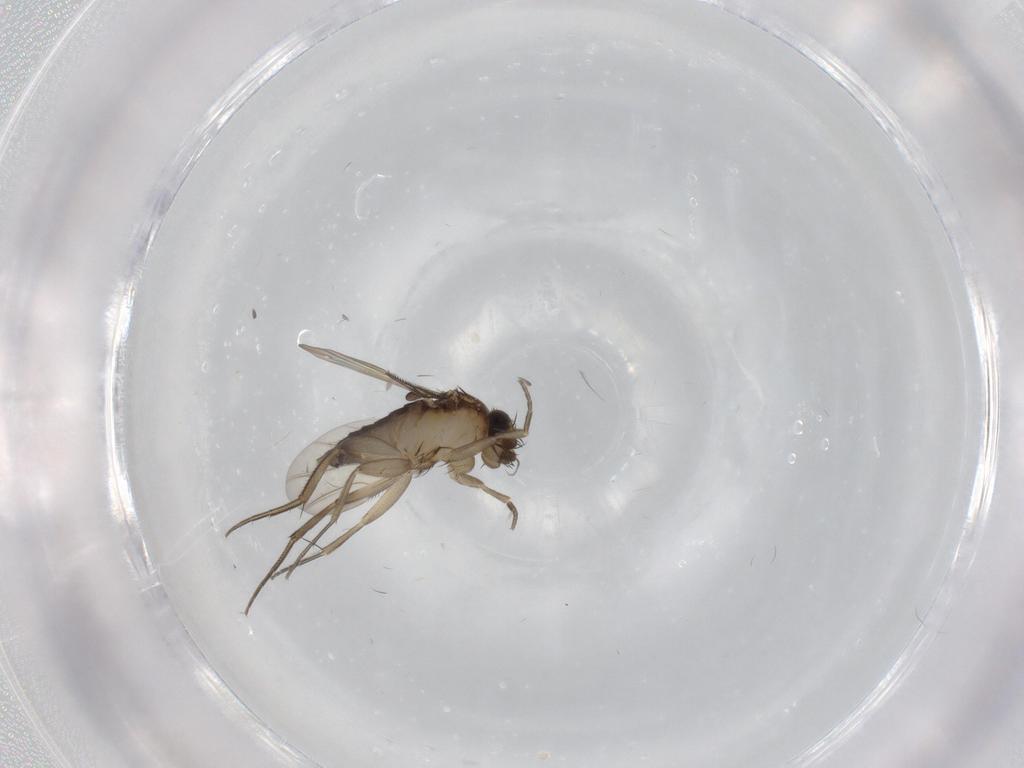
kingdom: Animalia
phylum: Arthropoda
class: Insecta
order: Diptera
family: Phoridae
